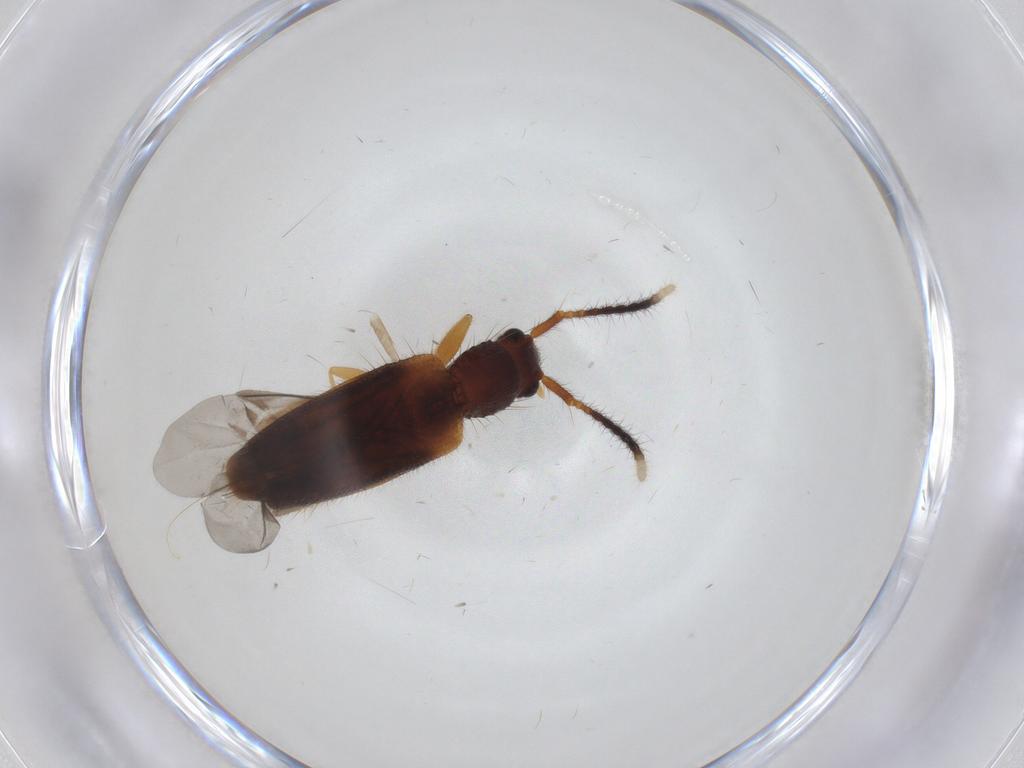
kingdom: Animalia
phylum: Arthropoda
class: Insecta
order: Coleoptera
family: Silvanidae
